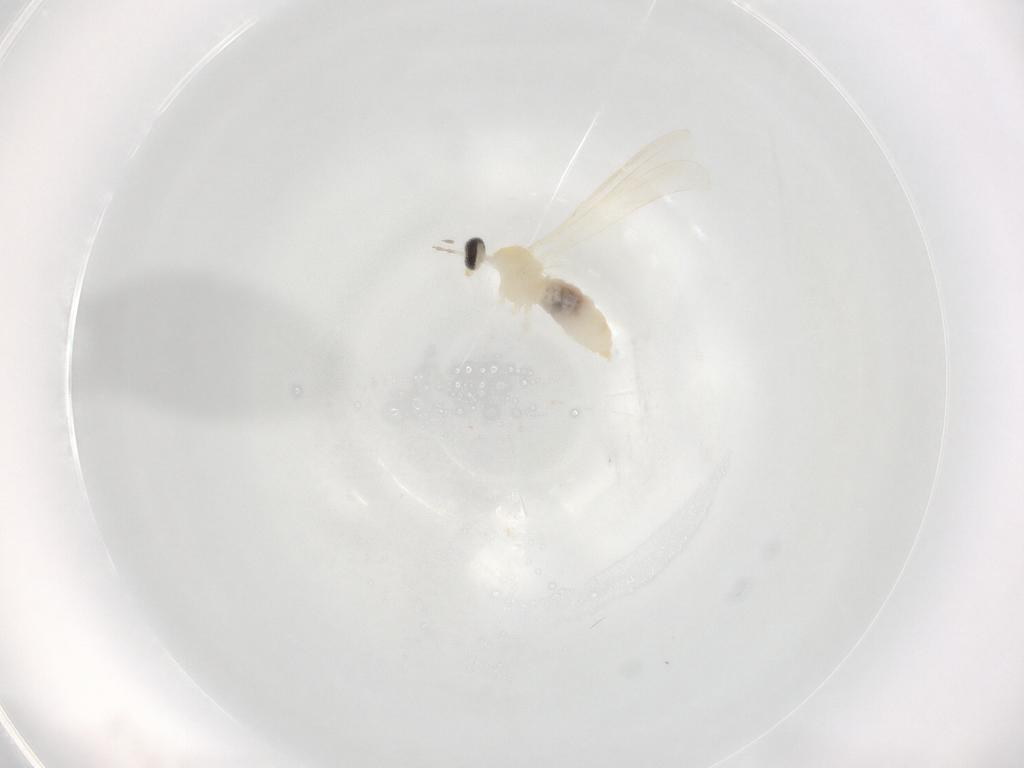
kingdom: Animalia
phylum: Arthropoda
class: Insecta
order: Diptera
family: Cecidomyiidae
